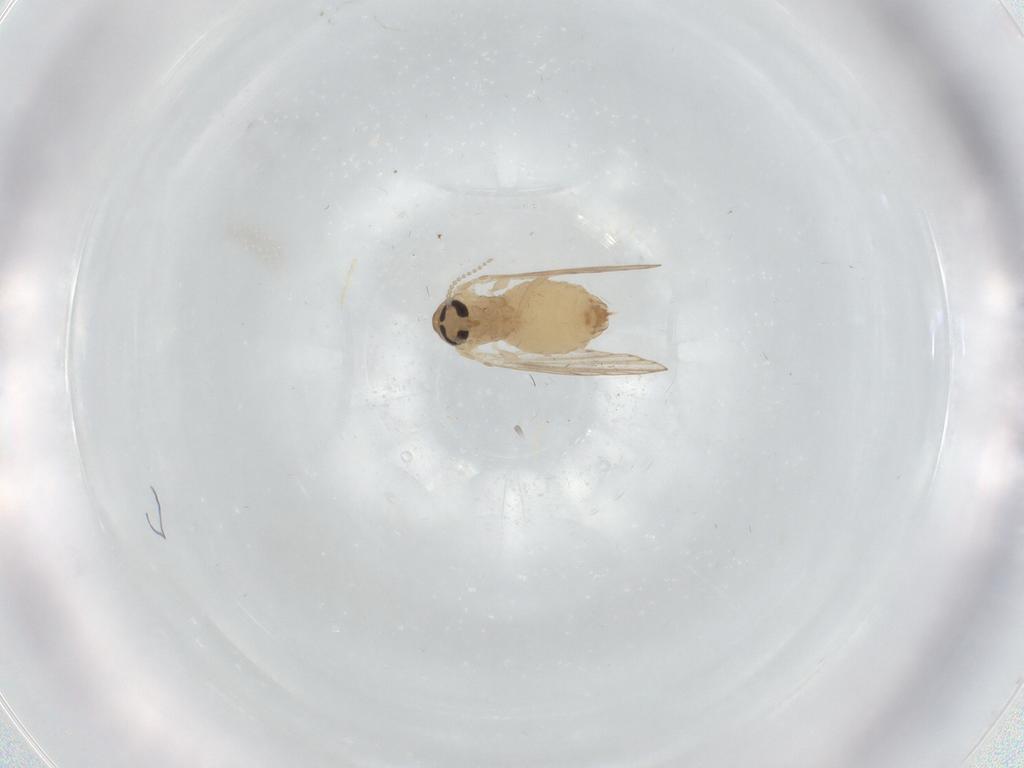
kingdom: Animalia
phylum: Arthropoda
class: Insecta
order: Diptera
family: Psychodidae
